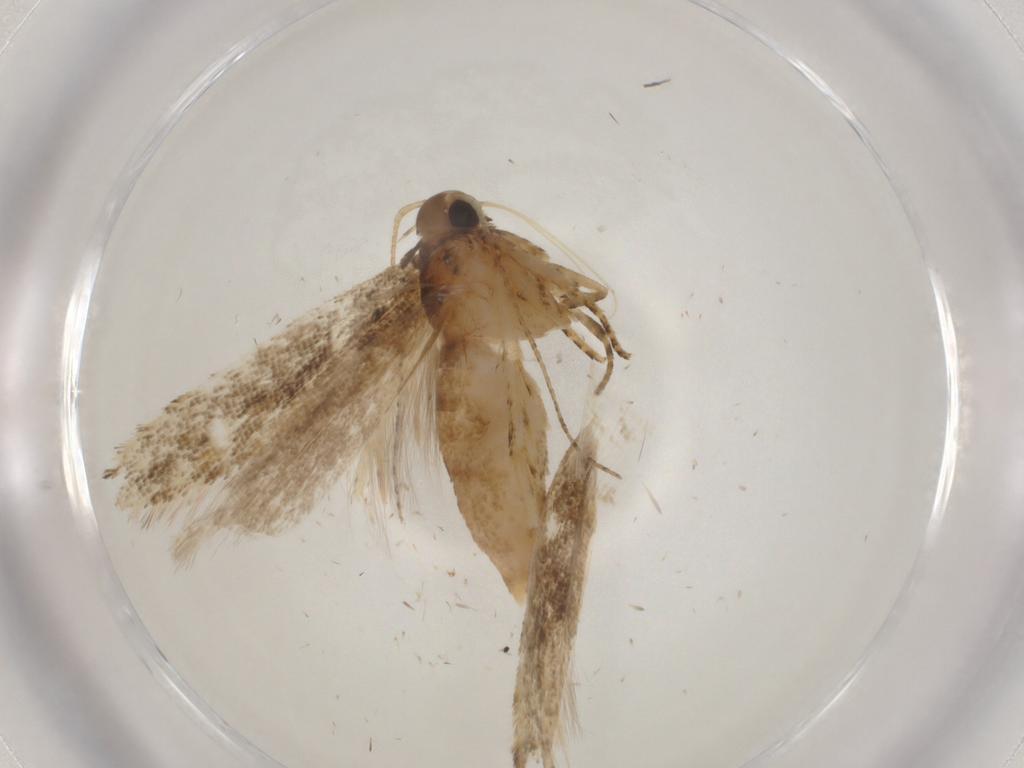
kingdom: Animalia
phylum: Arthropoda
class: Insecta
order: Lepidoptera
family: Gelechiidae
